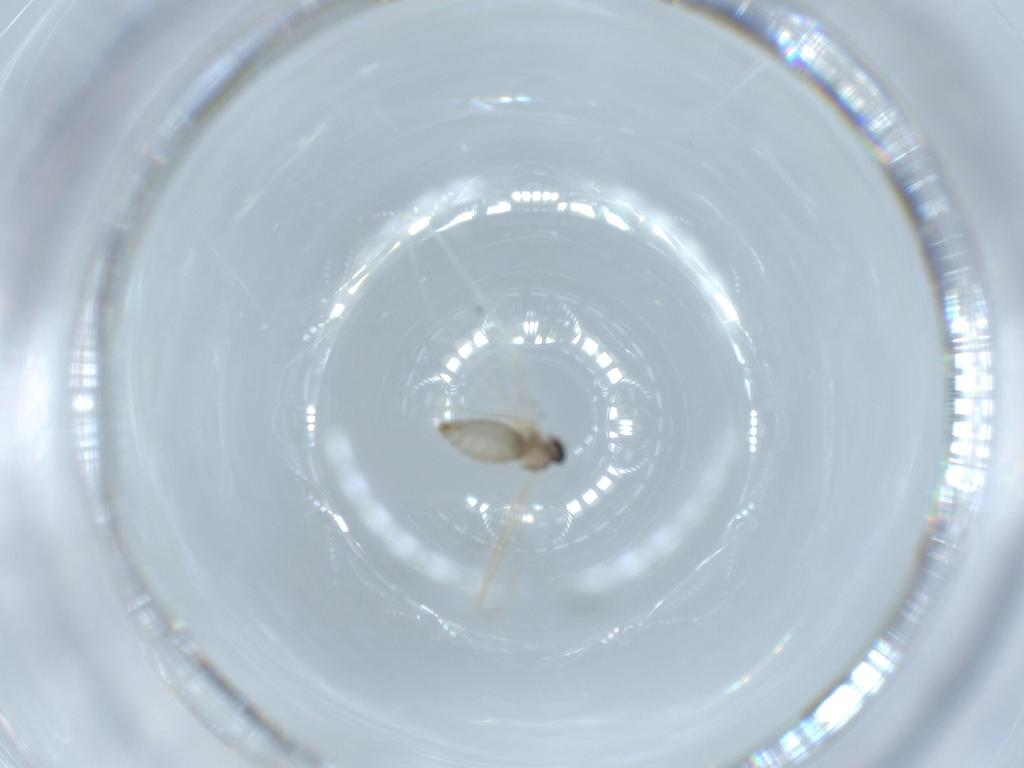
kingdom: Animalia
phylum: Arthropoda
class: Insecta
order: Diptera
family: Cecidomyiidae
